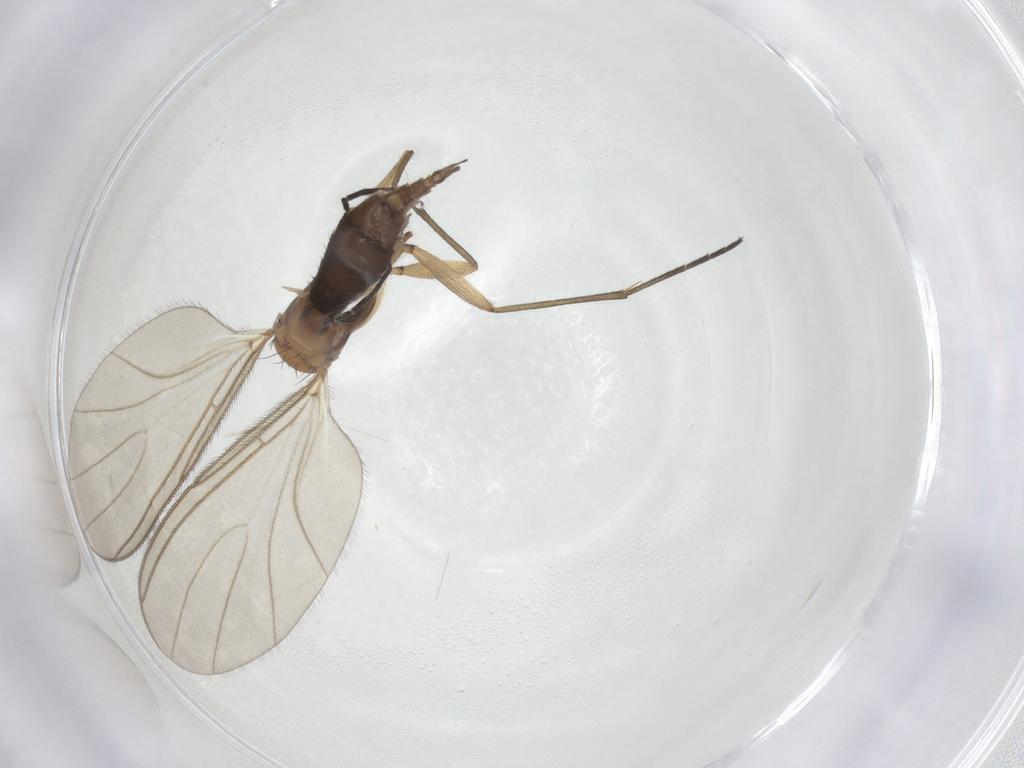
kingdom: Animalia
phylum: Arthropoda
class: Insecta
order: Diptera
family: Sciaridae
